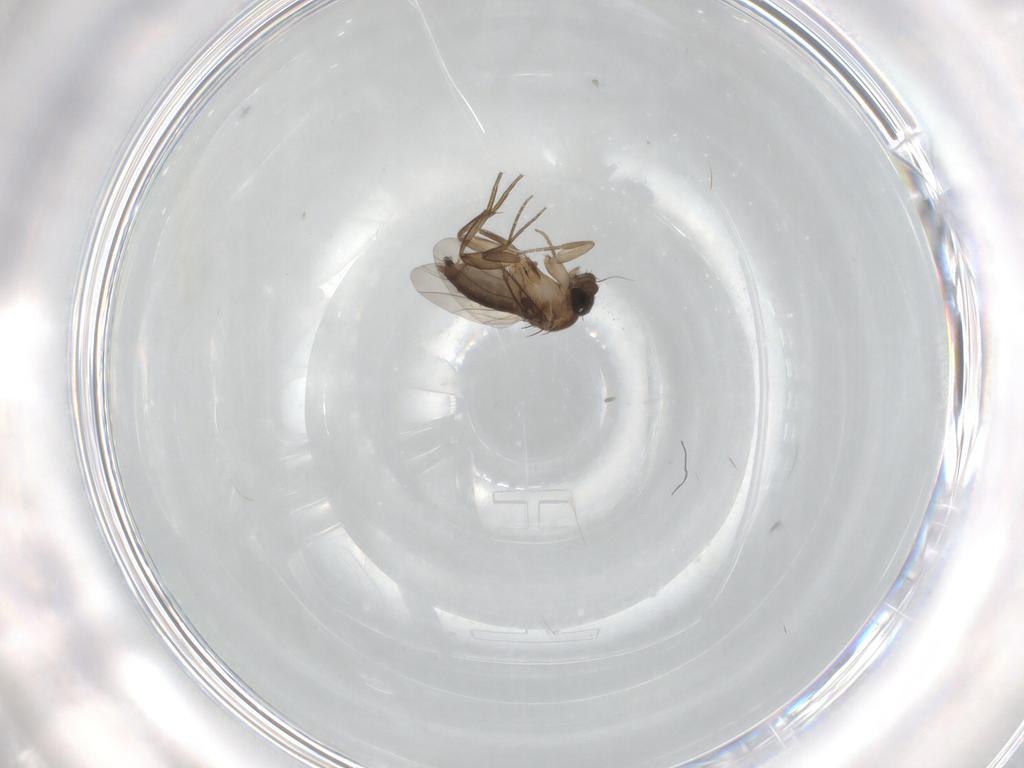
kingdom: Animalia
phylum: Arthropoda
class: Insecta
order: Diptera
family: Phoridae
